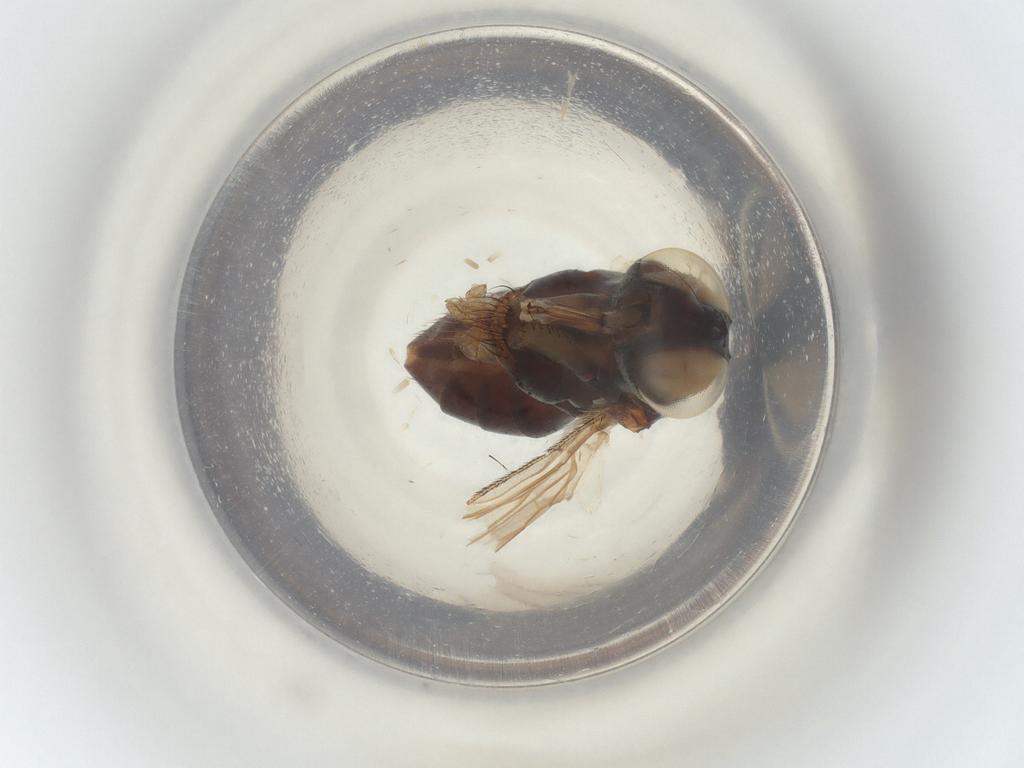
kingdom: Animalia
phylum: Arthropoda
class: Insecta
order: Diptera
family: Muscidae
